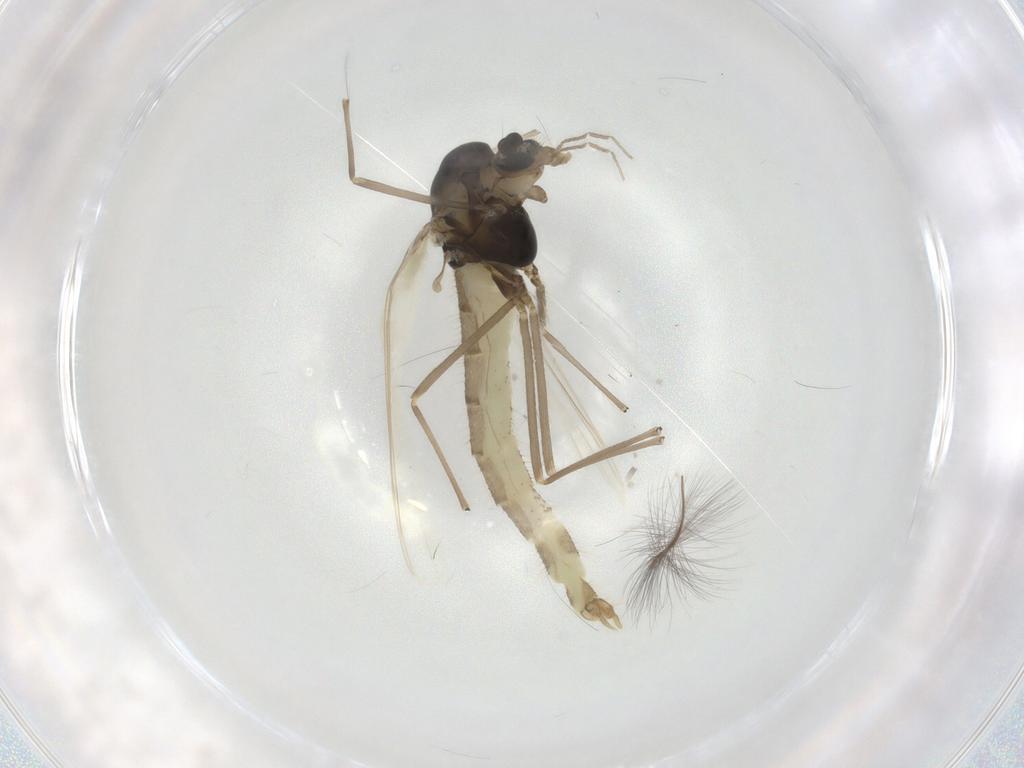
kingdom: Animalia
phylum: Arthropoda
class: Insecta
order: Diptera
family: Chironomidae
